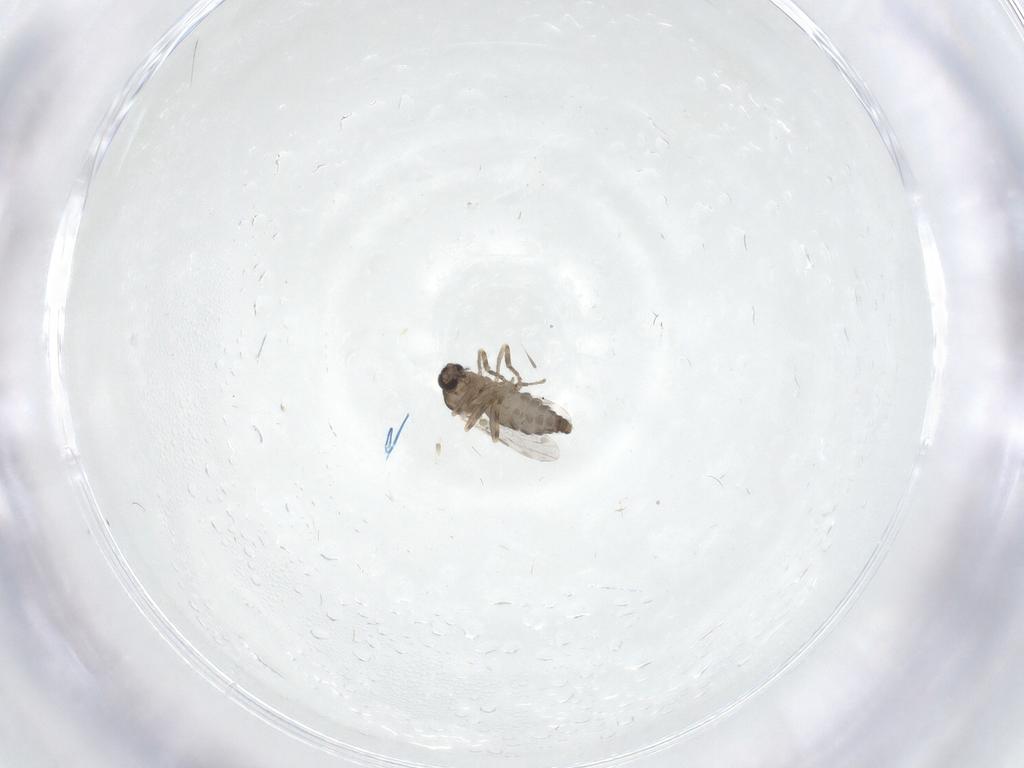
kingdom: Animalia
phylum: Arthropoda
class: Insecta
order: Diptera
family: Ceratopogonidae
